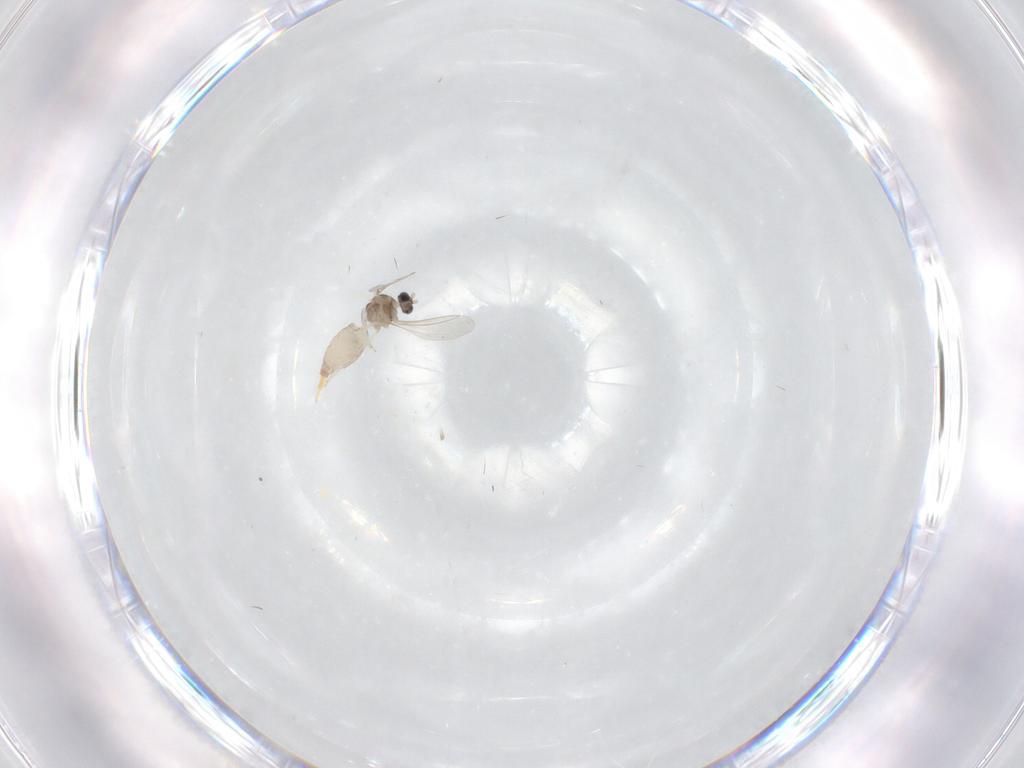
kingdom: Animalia
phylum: Arthropoda
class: Insecta
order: Diptera
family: Cecidomyiidae
